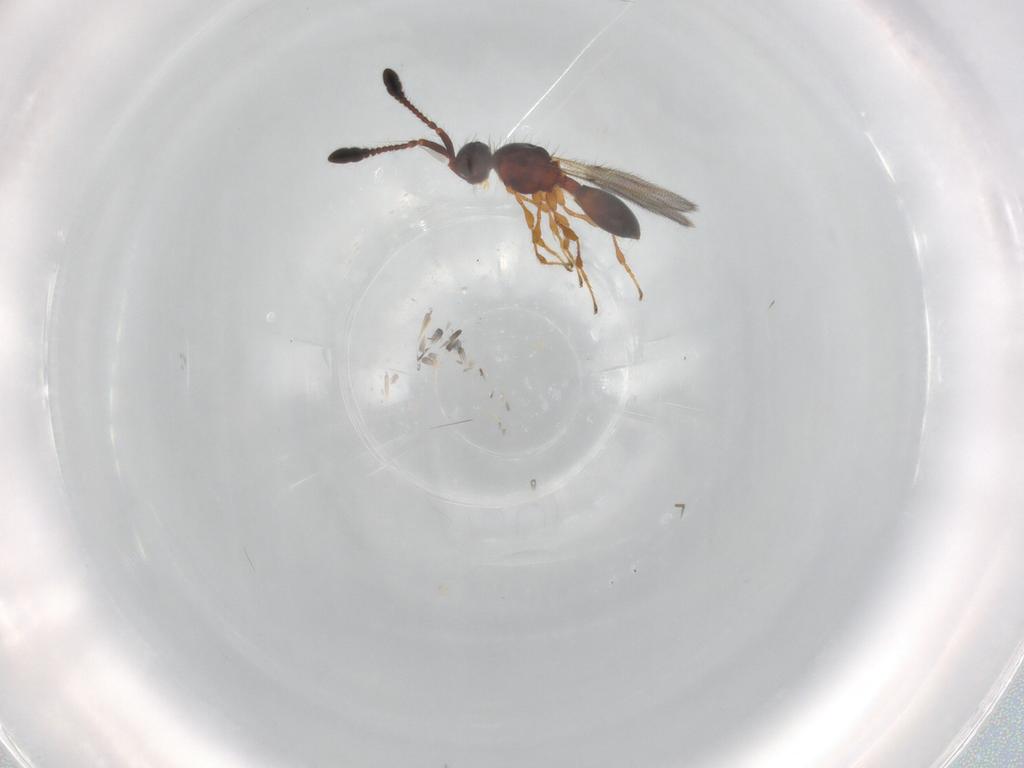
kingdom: Animalia
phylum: Arthropoda
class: Insecta
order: Hymenoptera
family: Diapriidae
